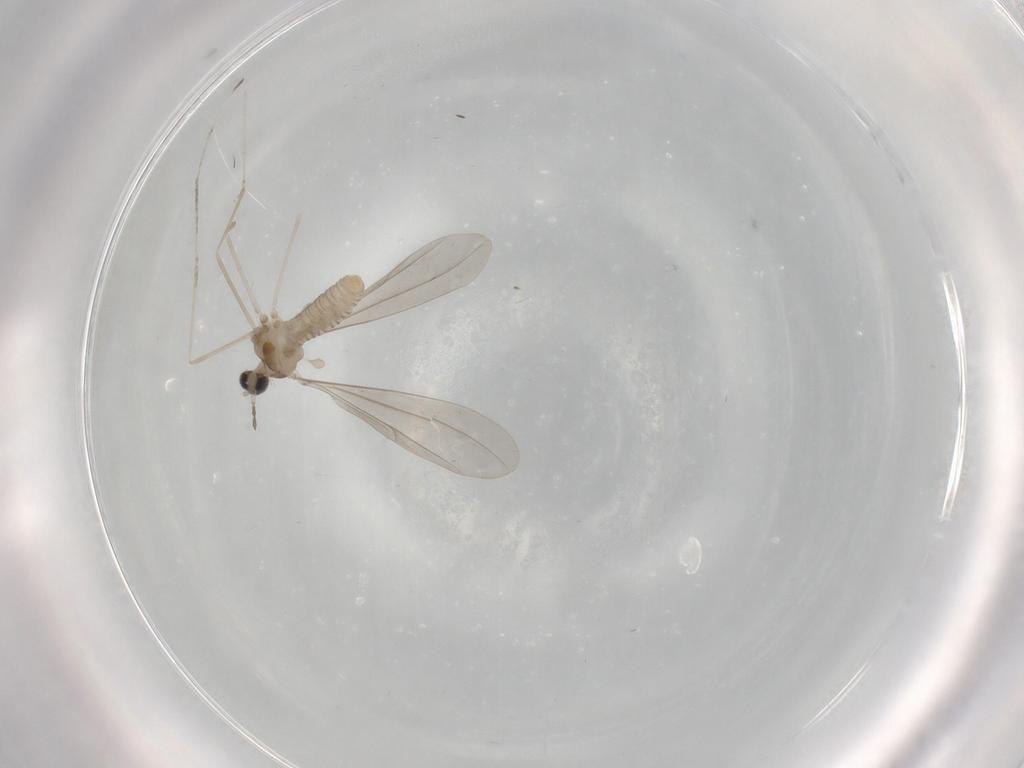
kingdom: Animalia
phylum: Arthropoda
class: Insecta
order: Diptera
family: Cecidomyiidae
